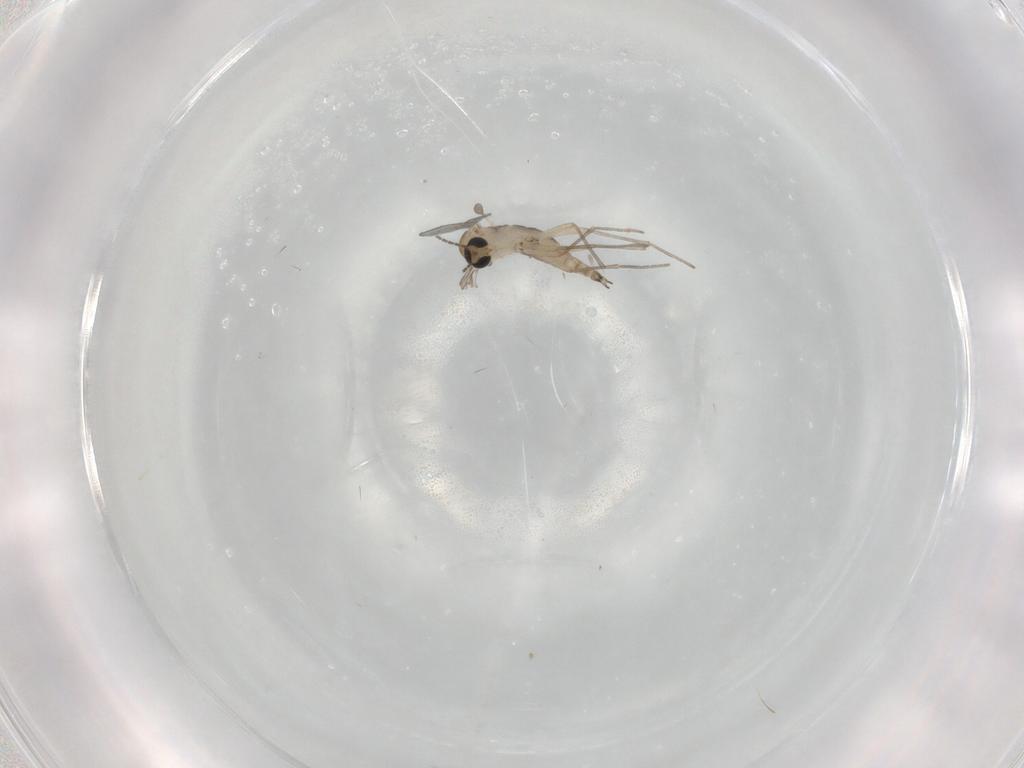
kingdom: Animalia
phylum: Arthropoda
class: Insecta
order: Diptera
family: Sciaridae
